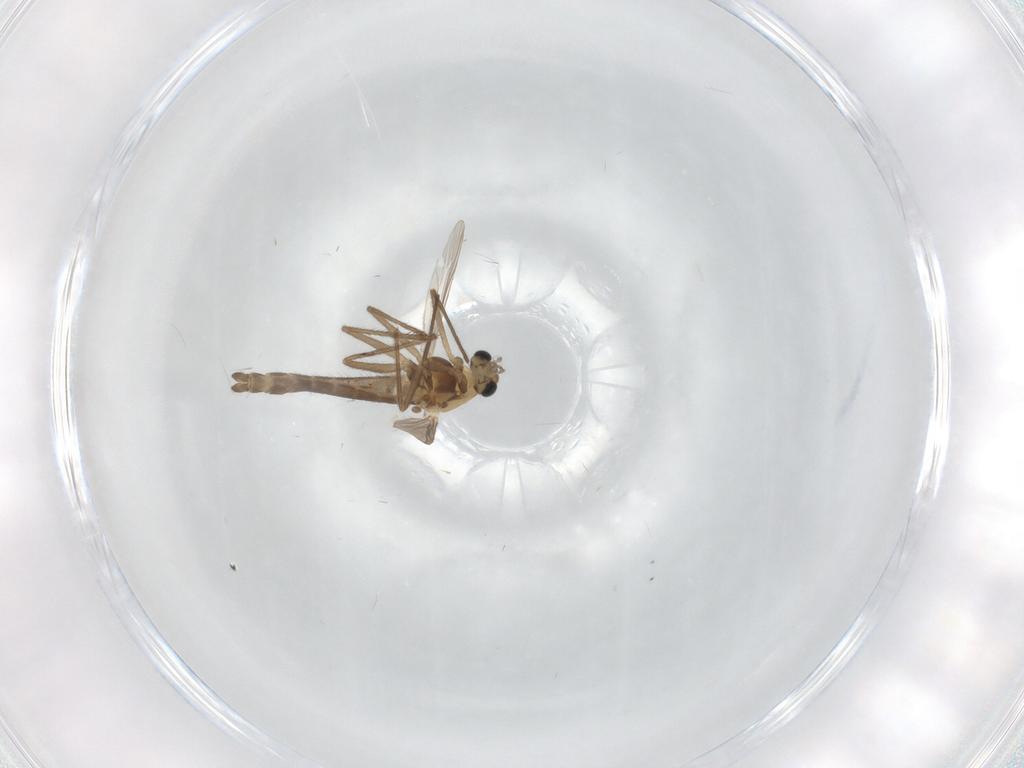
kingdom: Animalia
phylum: Arthropoda
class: Insecta
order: Diptera
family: Chironomidae
